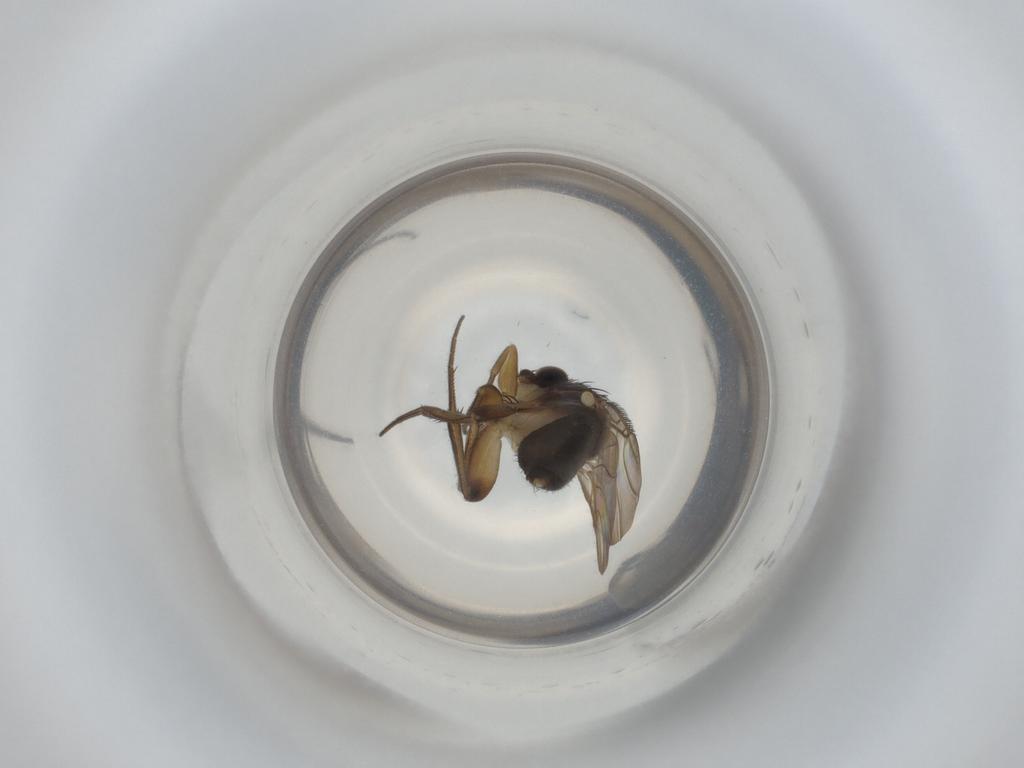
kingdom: Animalia
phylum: Arthropoda
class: Insecta
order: Diptera
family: Phoridae
